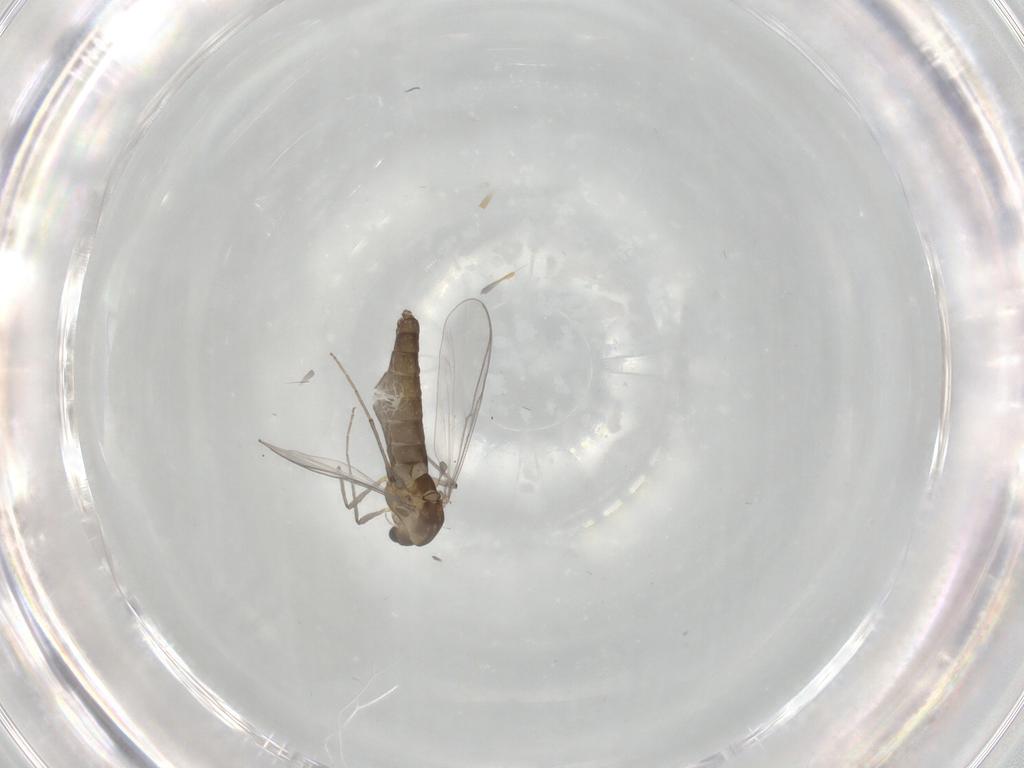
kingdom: Animalia
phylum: Arthropoda
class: Insecta
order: Diptera
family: Chironomidae
